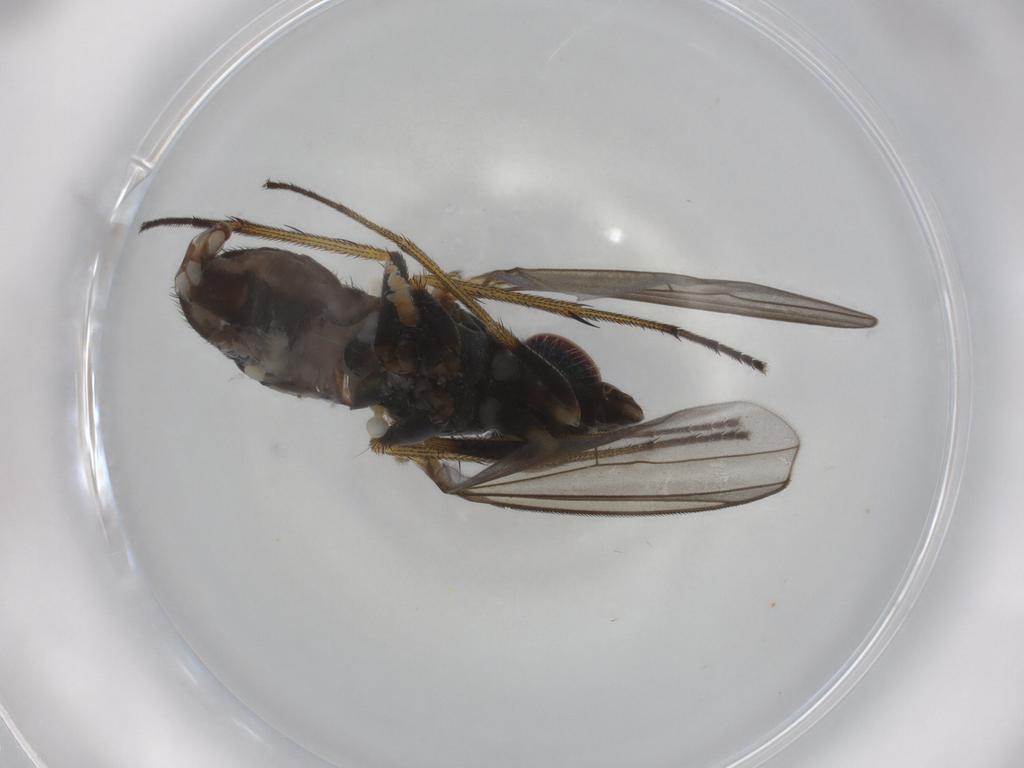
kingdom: Animalia
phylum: Arthropoda
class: Insecta
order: Diptera
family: Dolichopodidae
